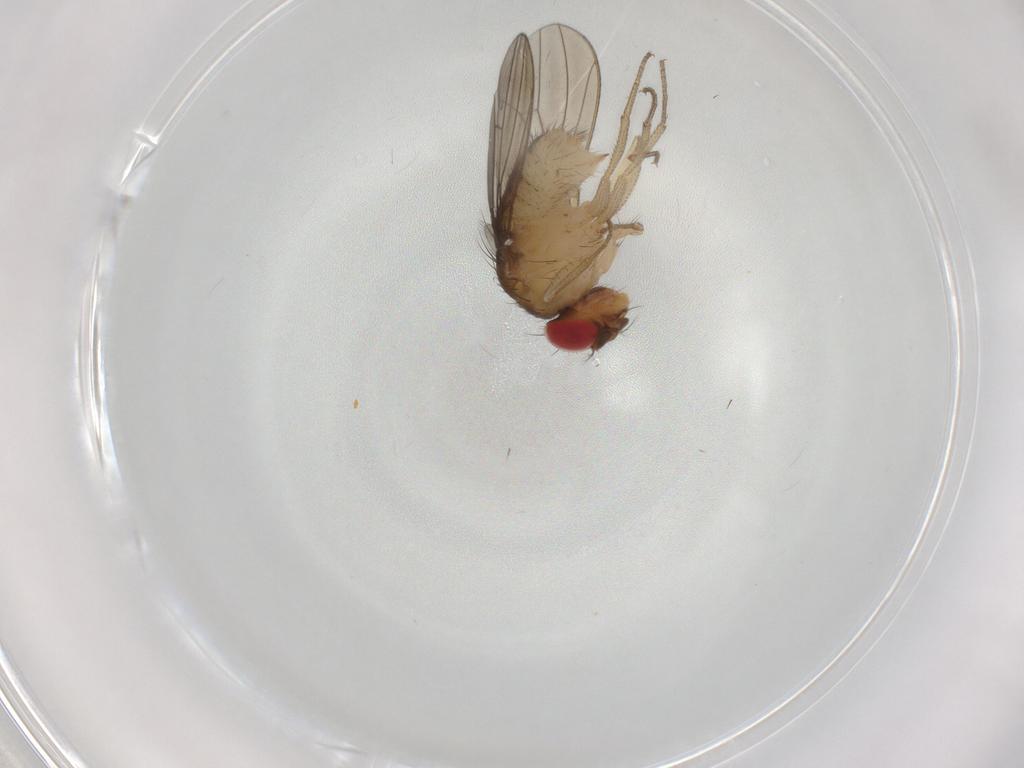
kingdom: Animalia
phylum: Arthropoda
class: Insecta
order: Diptera
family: Drosophilidae
